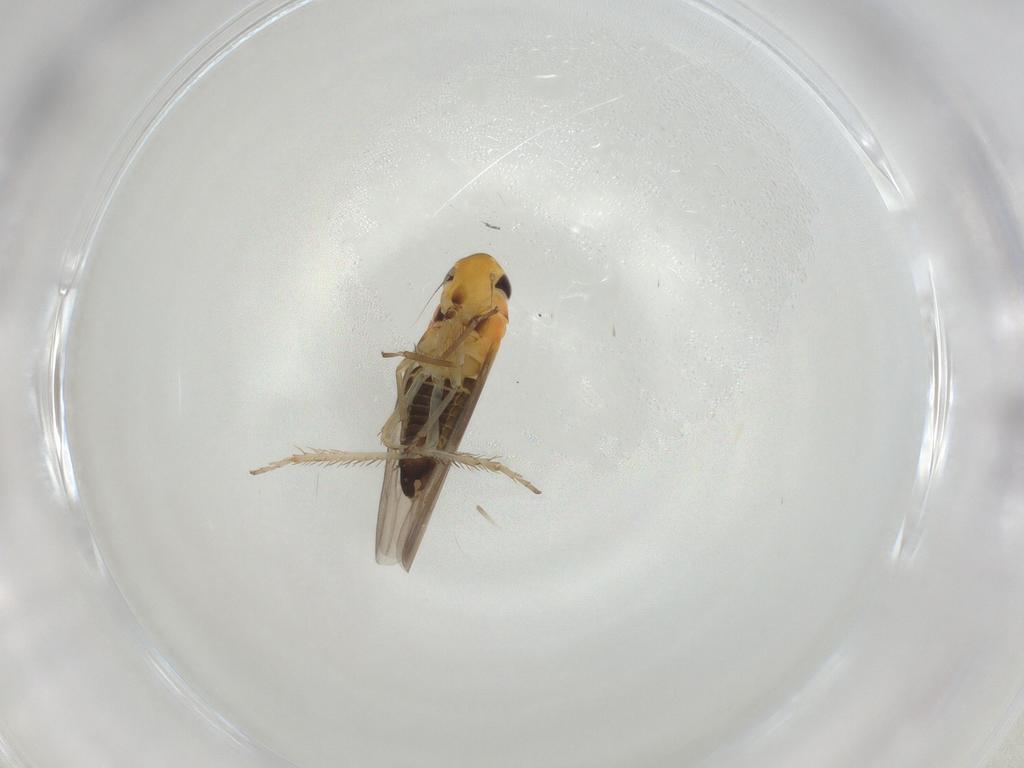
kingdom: Animalia
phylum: Arthropoda
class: Insecta
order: Hemiptera
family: Cicadellidae
